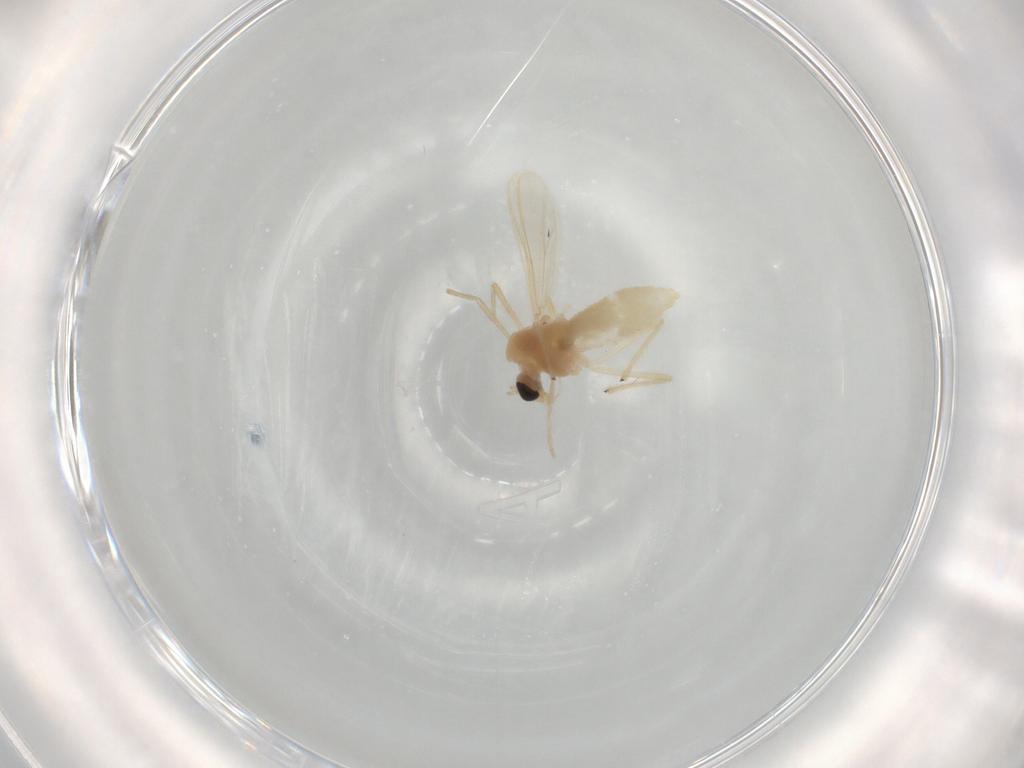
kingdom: Animalia
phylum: Arthropoda
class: Insecta
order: Diptera
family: Chironomidae
